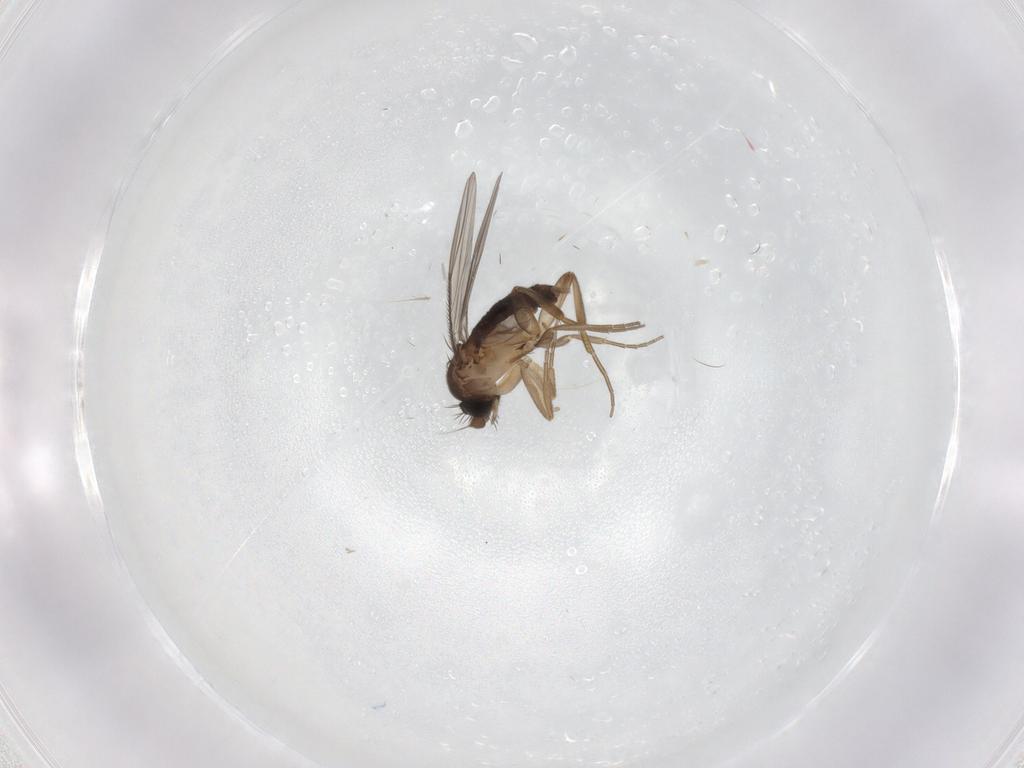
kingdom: Animalia
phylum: Arthropoda
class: Insecta
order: Diptera
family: Phoridae
